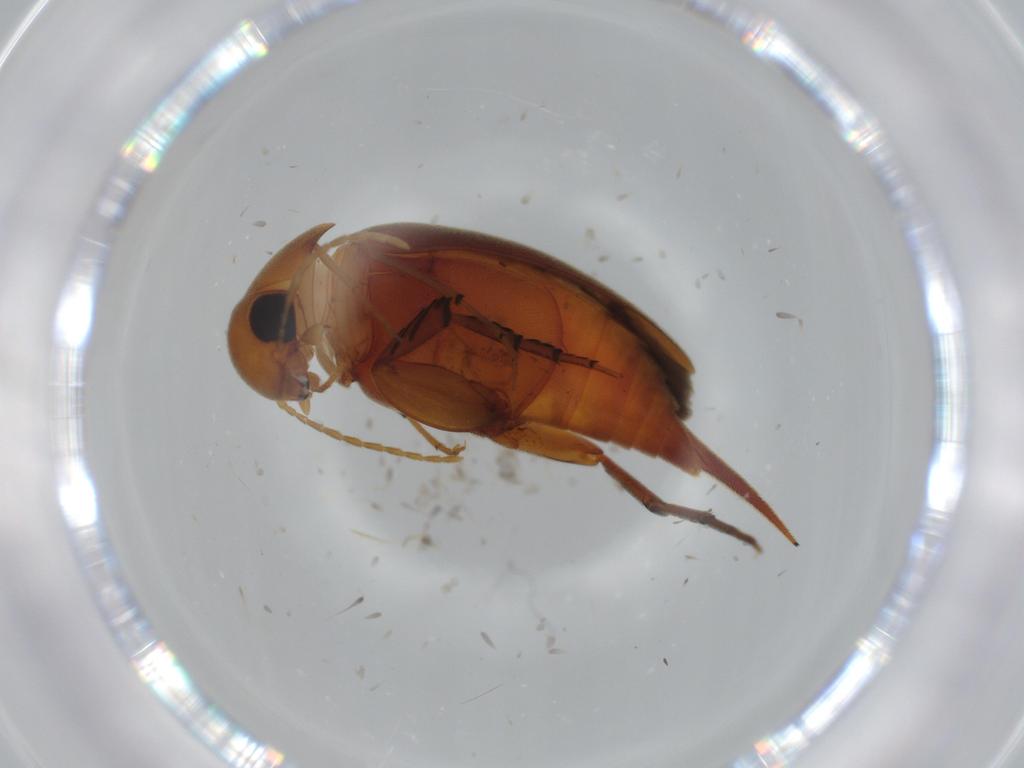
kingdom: Animalia
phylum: Arthropoda
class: Insecta
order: Coleoptera
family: Mordellidae
